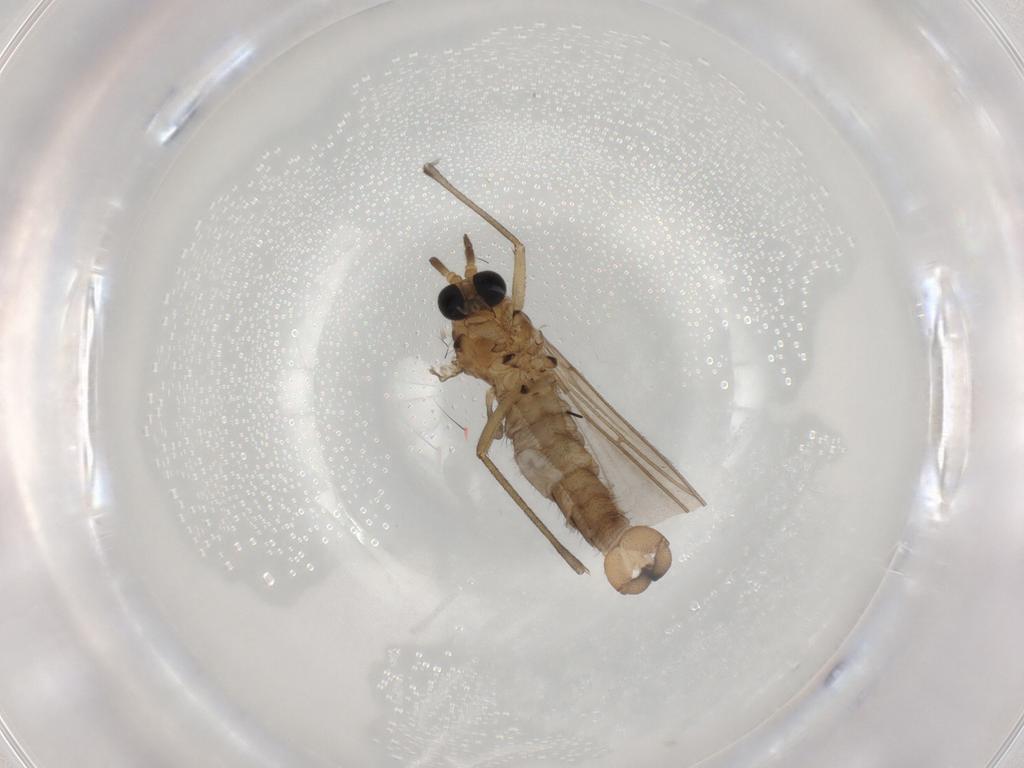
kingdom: Animalia
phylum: Arthropoda
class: Insecta
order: Diptera
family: Sciaridae
